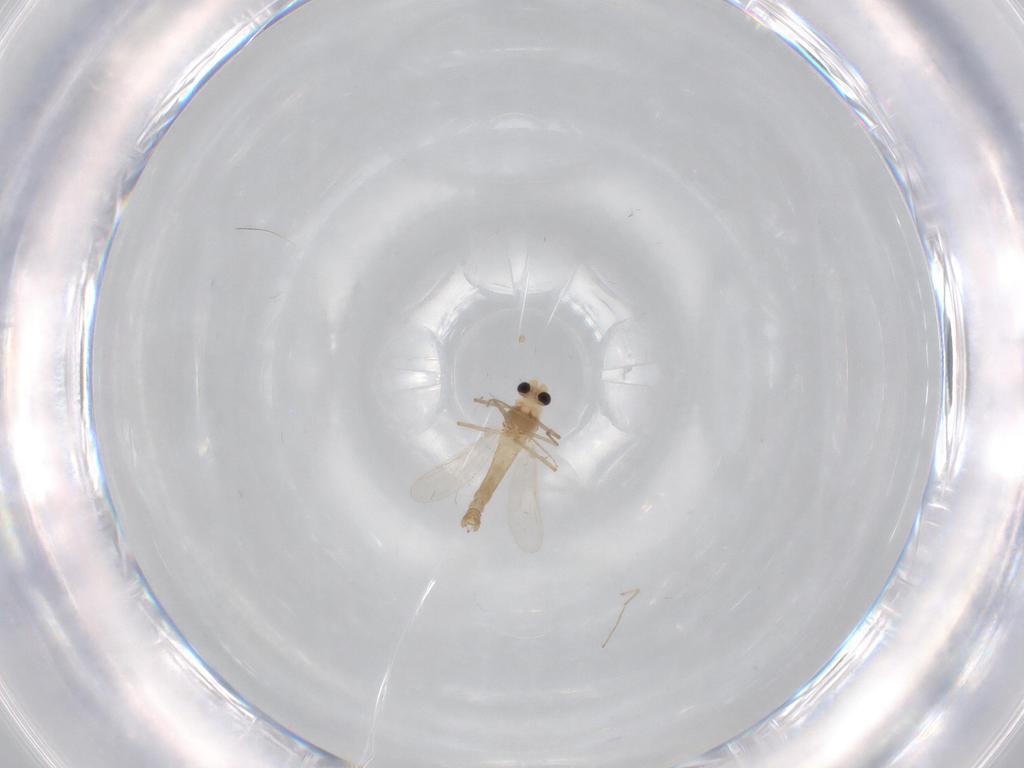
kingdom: Animalia
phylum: Arthropoda
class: Insecta
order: Diptera
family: Chironomidae
